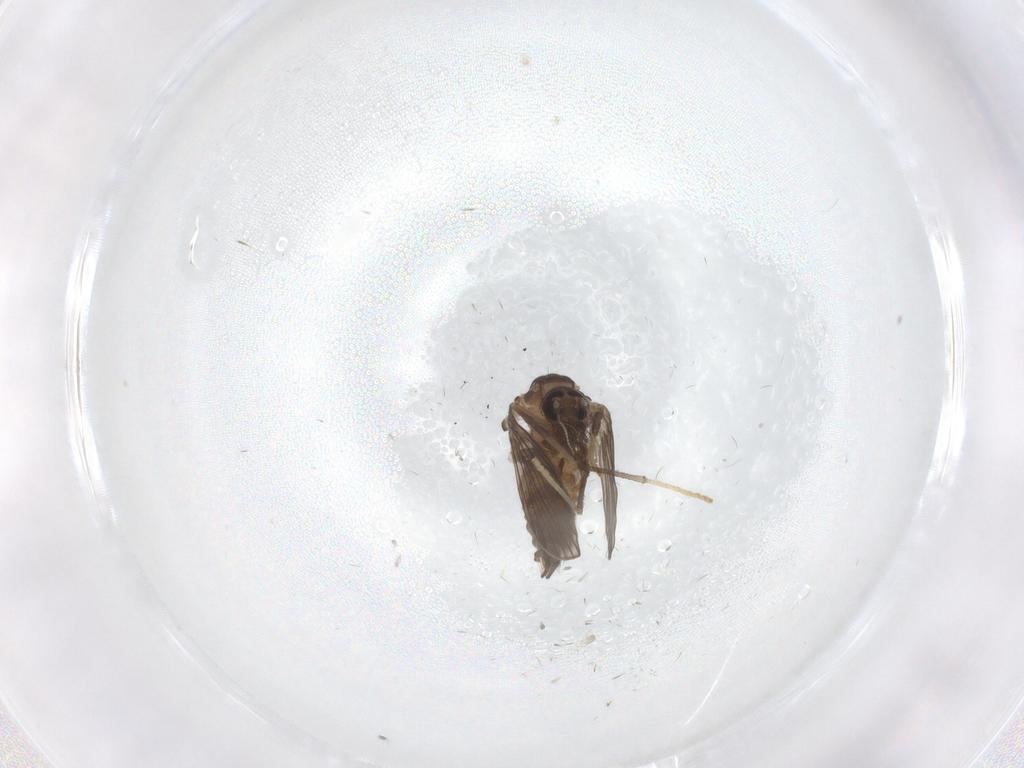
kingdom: Animalia
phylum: Arthropoda
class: Insecta
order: Diptera
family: Psychodidae
